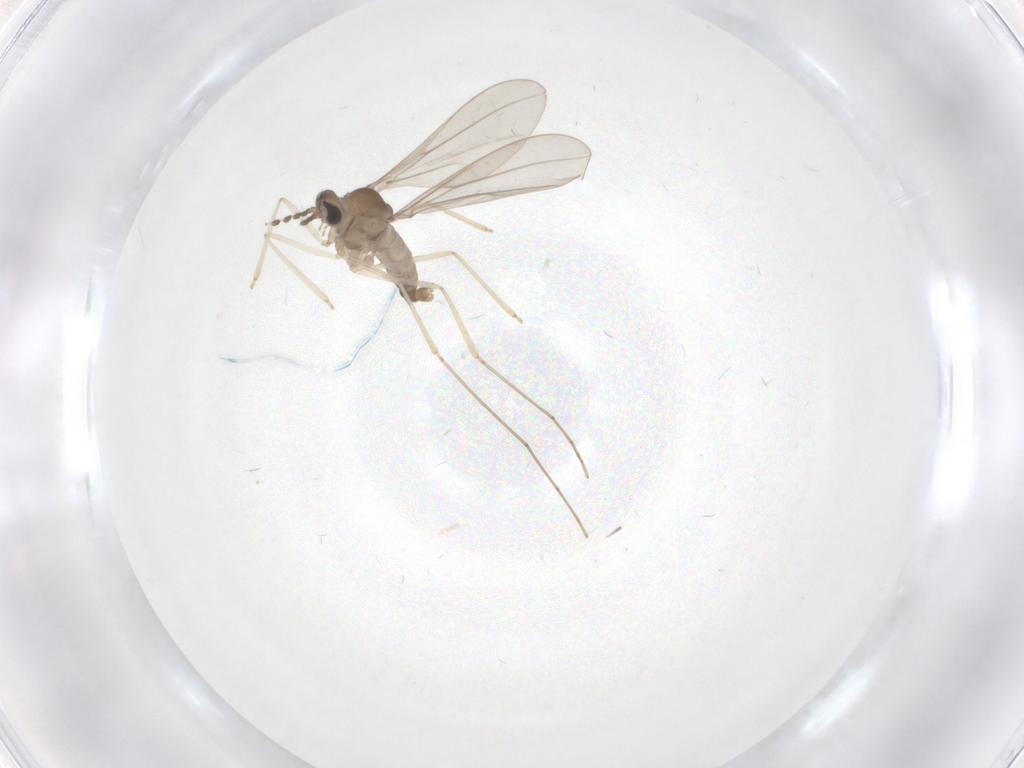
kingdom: Animalia
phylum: Arthropoda
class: Insecta
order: Diptera
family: Cecidomyiidae
